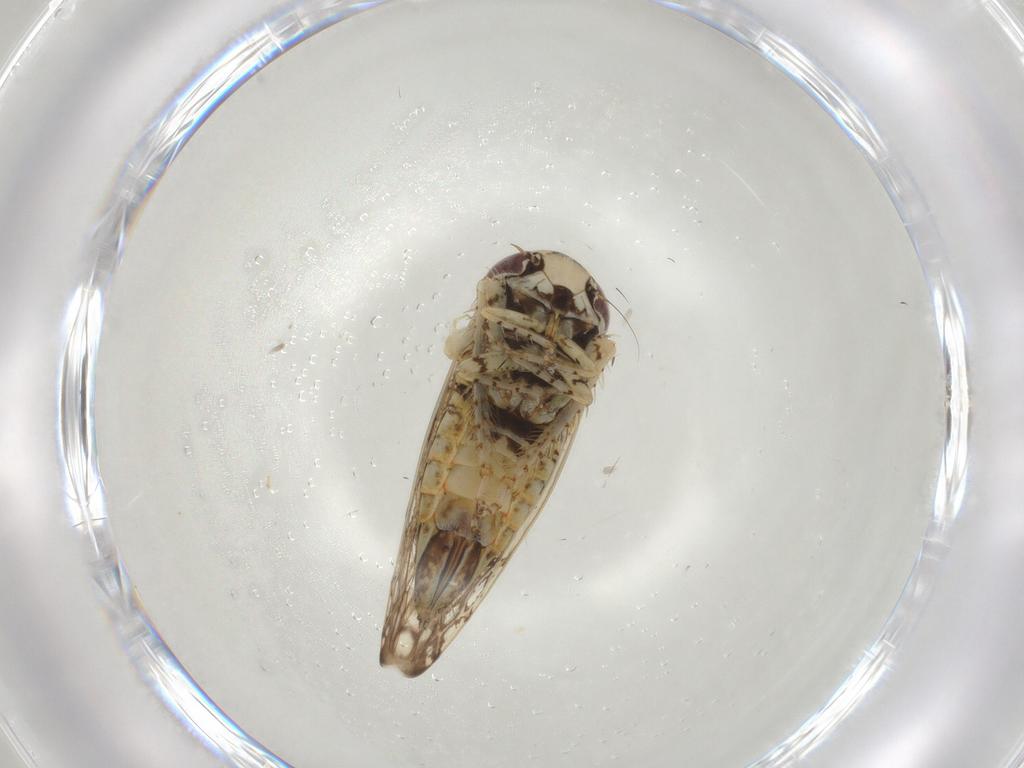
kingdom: Animalia
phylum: Arthropoda
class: Insecta
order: Hemiptera
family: Cicadellidae
